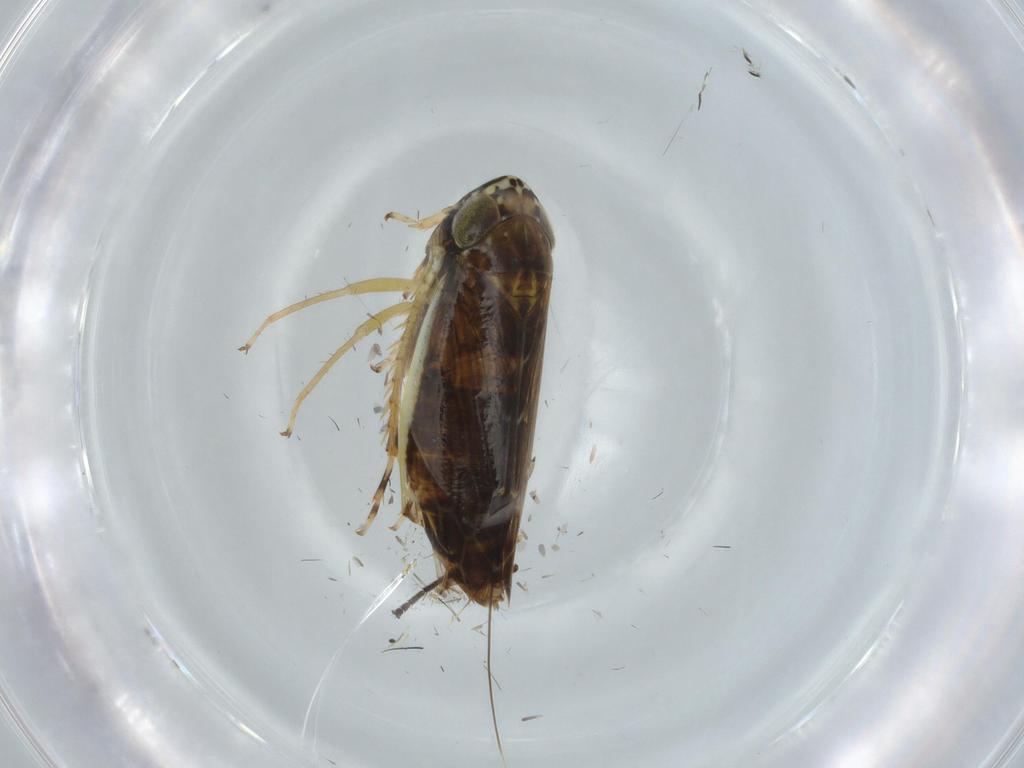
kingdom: Animalia
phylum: Arthropoda
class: Insecta
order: Hemiptera
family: Cicadellidae
